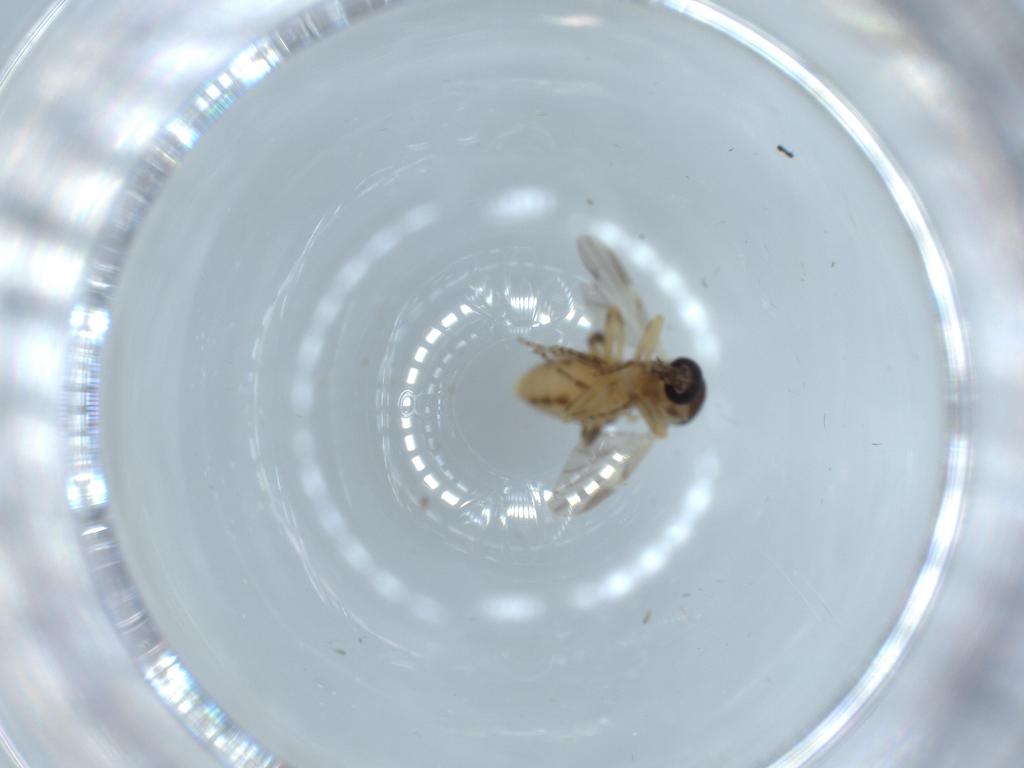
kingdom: Animalia
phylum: Arthropoda
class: Insecta
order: Diptera
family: Ceratopogonidae
